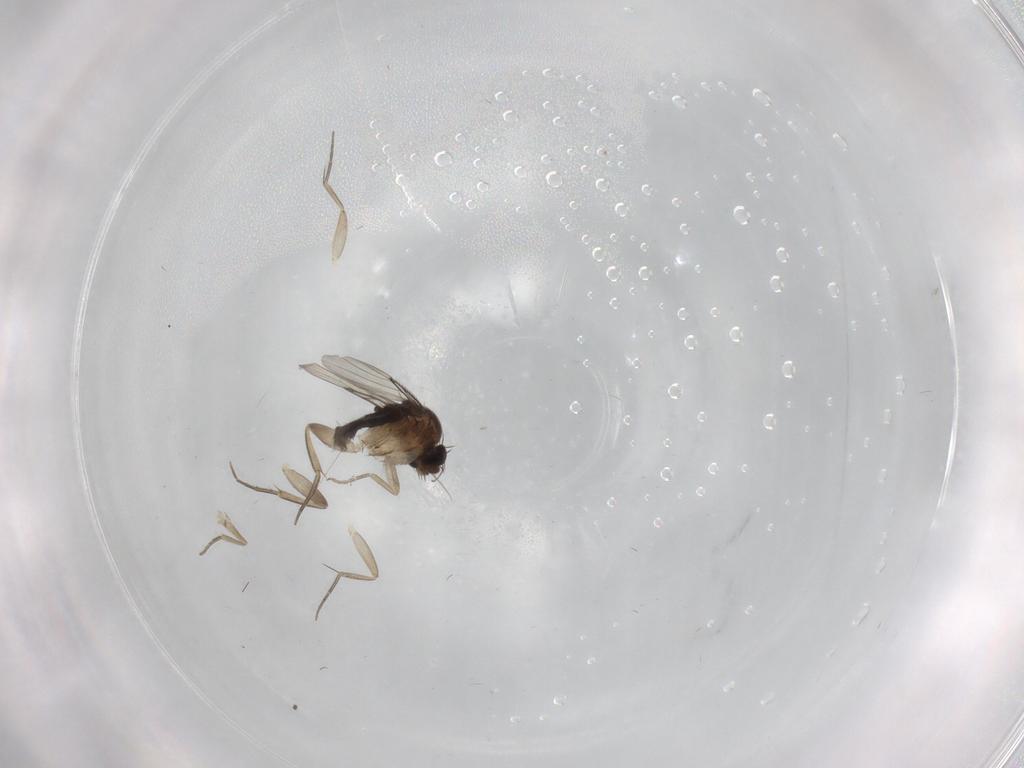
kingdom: Animalia
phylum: Arthropoda
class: Insecta
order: Diptera
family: Phoridae
